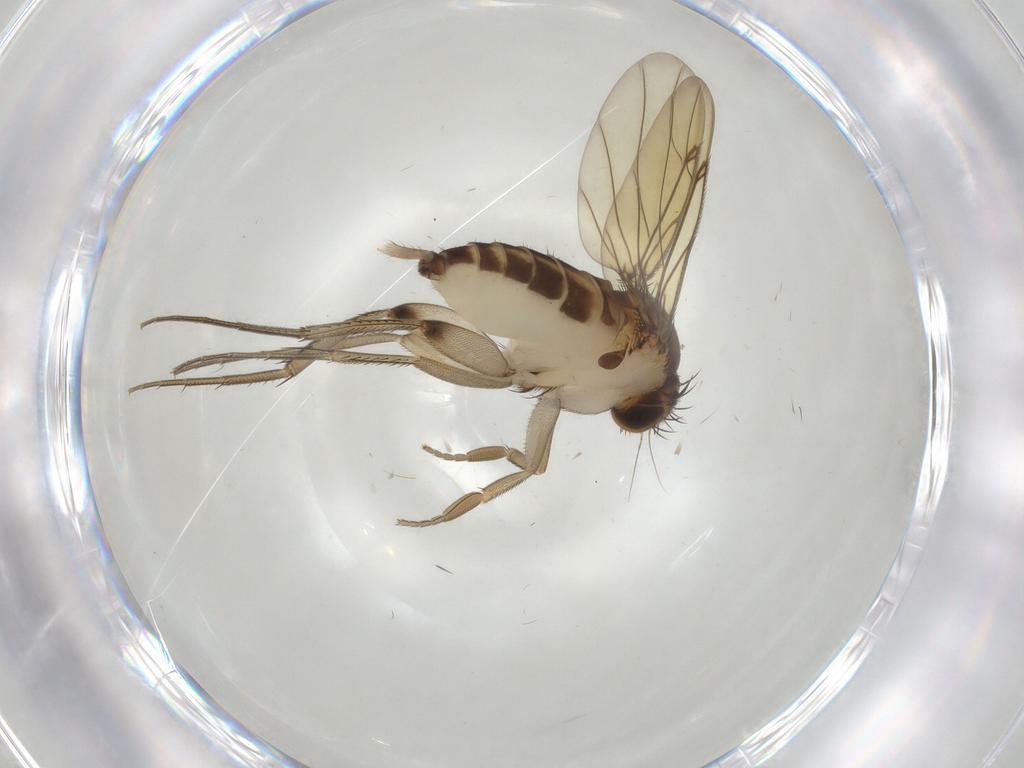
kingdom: Animalia
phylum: Arthropoda
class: Insecta
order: Diptera
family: Phoridae
